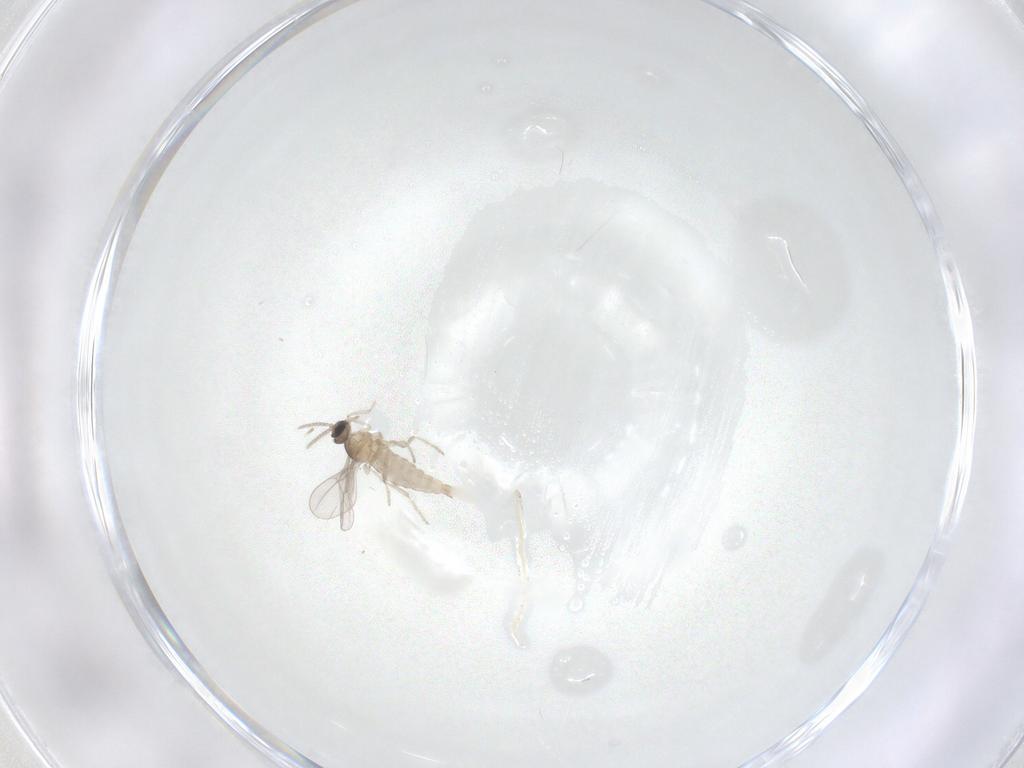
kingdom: Animalia
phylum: Arthropoda
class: Insecta
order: Diptera
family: Cecidomyiidae
